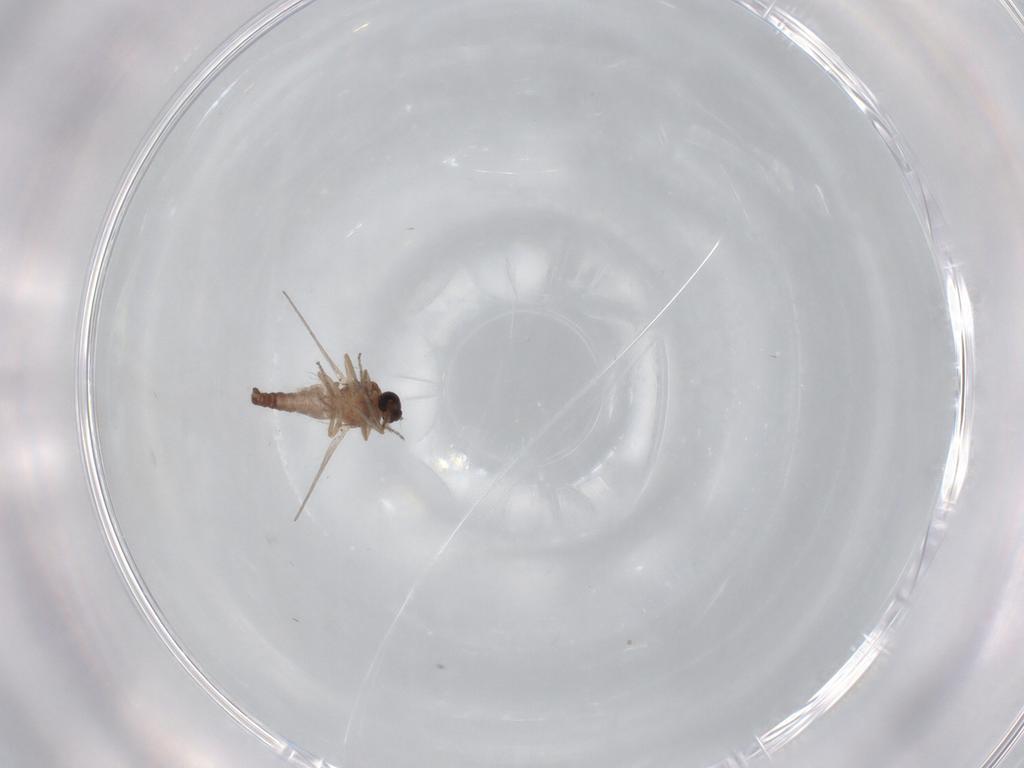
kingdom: Animalia
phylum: Arthropoda
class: Insecta
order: Diptera
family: Ceratopogonidae
